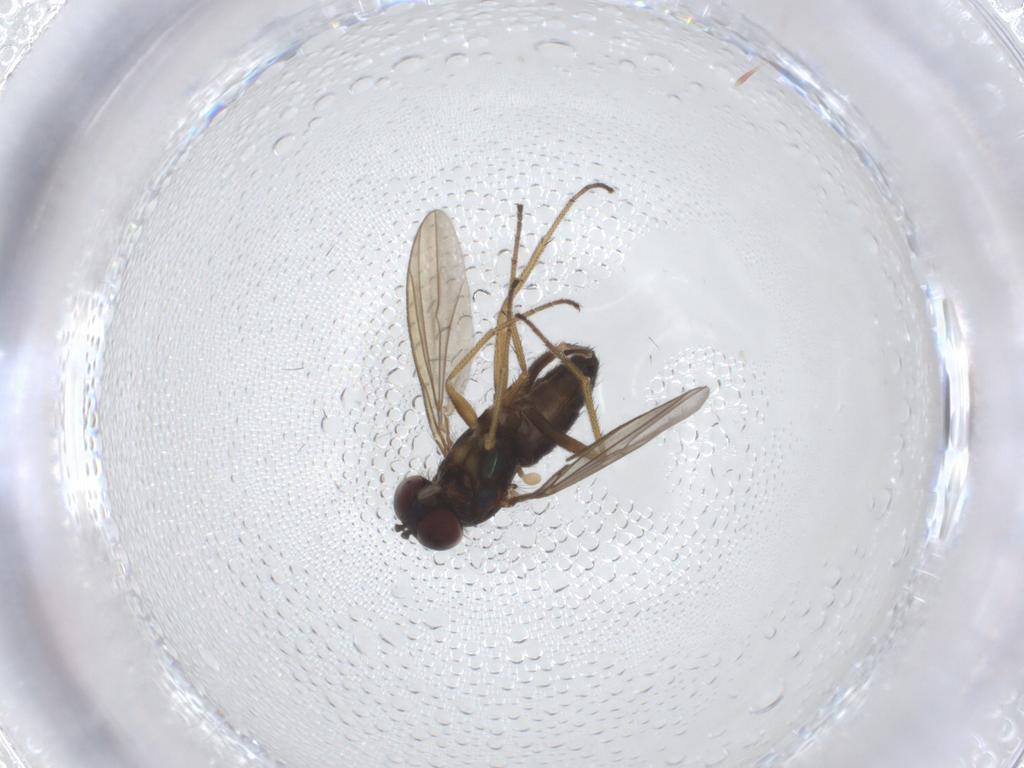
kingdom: Animalia
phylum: Arthropoda
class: Insecta
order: Diptera
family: Dolichopodidae
